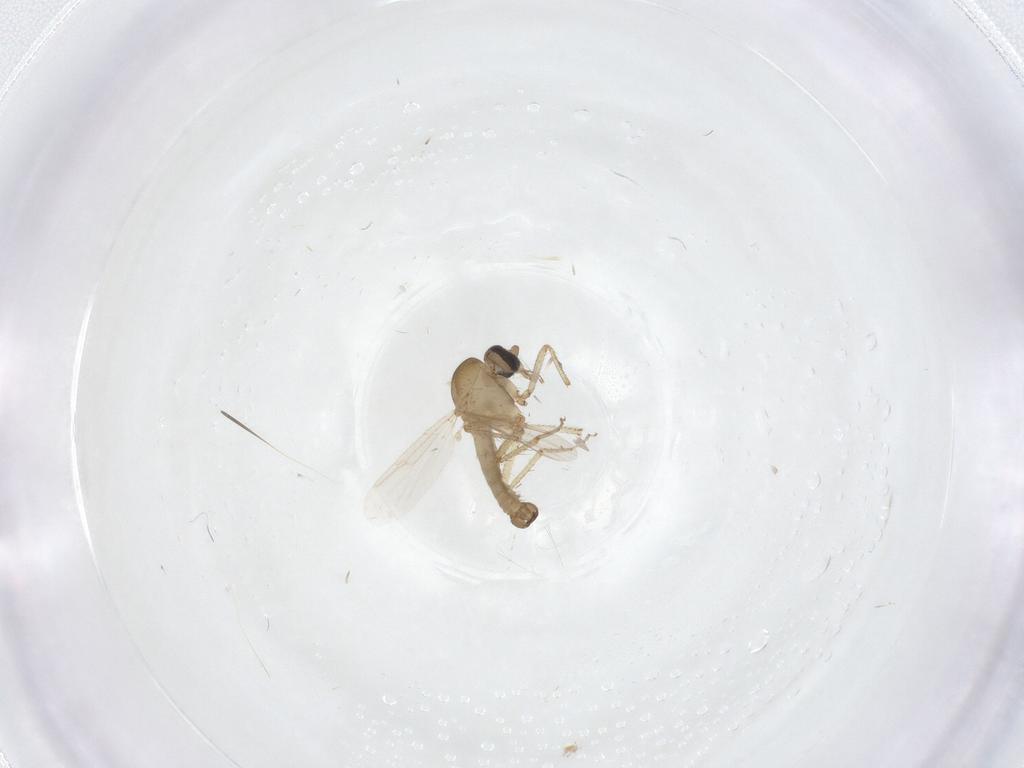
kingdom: Animalia
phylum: Arthropoda
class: Insecta
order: Diptera
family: Ceratopogonidae
